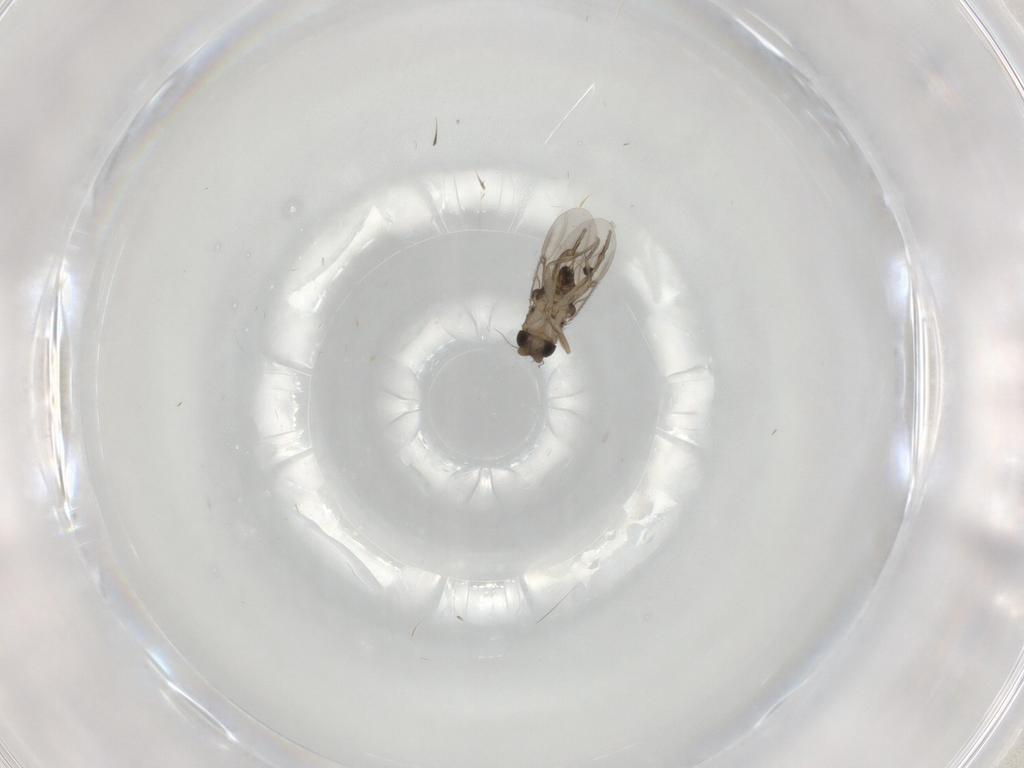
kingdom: Animalia
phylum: Arthropoda
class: Insecta
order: Diptera
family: Phoridae
